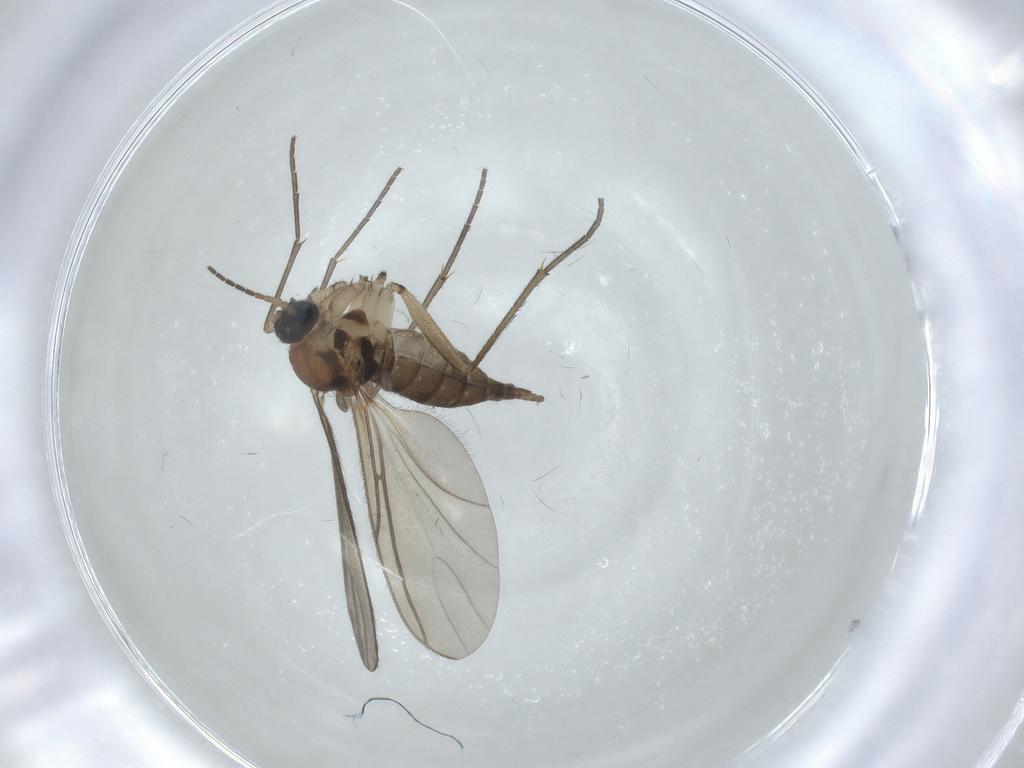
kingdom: Animalia
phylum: Arthropoda
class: Insecta
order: Diptera
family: Sciaridae
